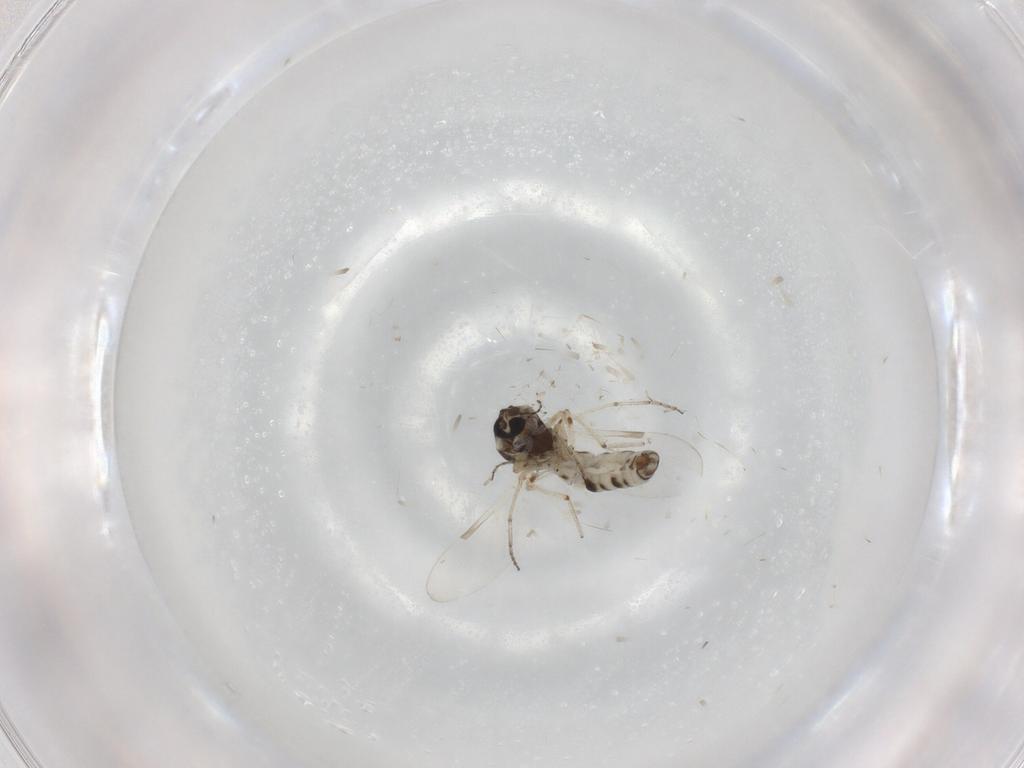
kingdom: Animalia
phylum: Arthropoda
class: Insecta
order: Diptera
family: Ceratopogonidae
